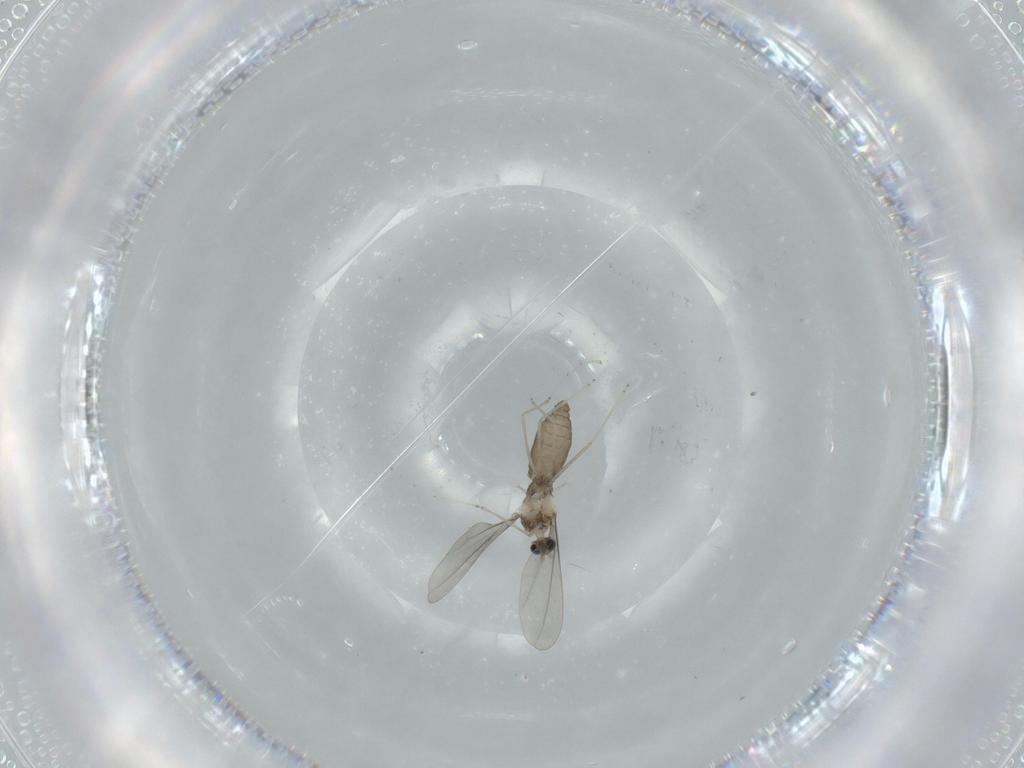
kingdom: Animalia
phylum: Arthropoda
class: Insecta
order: Diptera
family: Cecidomyiidae
